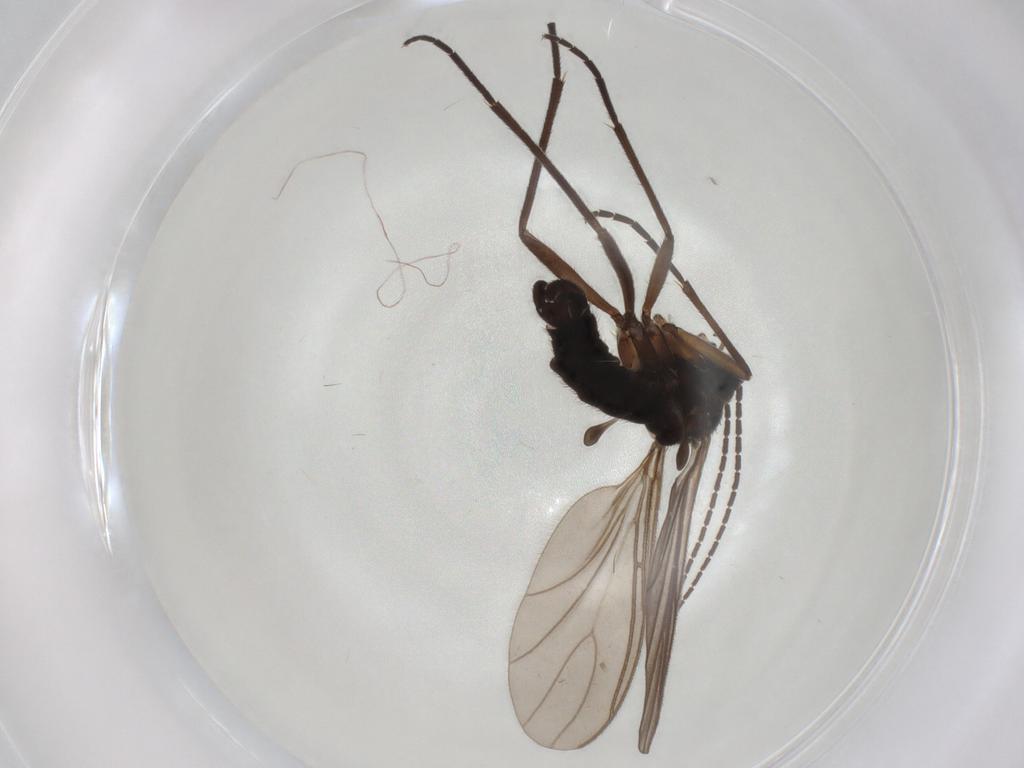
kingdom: Animalia
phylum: Arthropoda
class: Insecta
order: Diptera
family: Sciaridae
